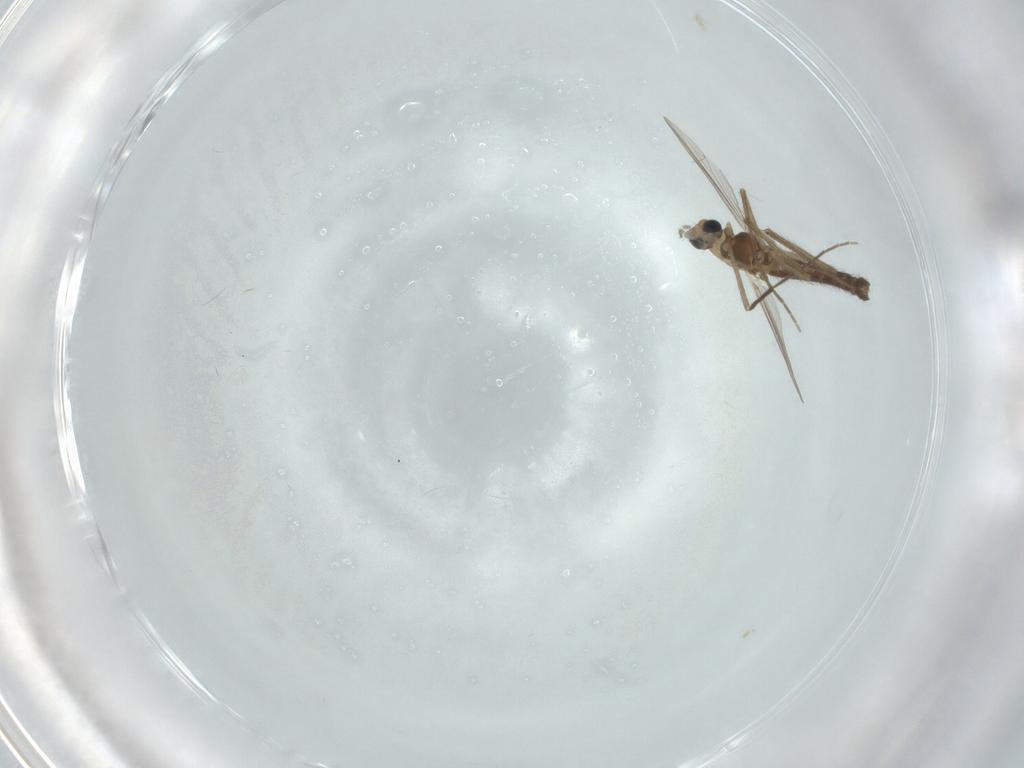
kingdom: Animalia
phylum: Arthropoda
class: Insecta
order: Diptera
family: Chironomidae
